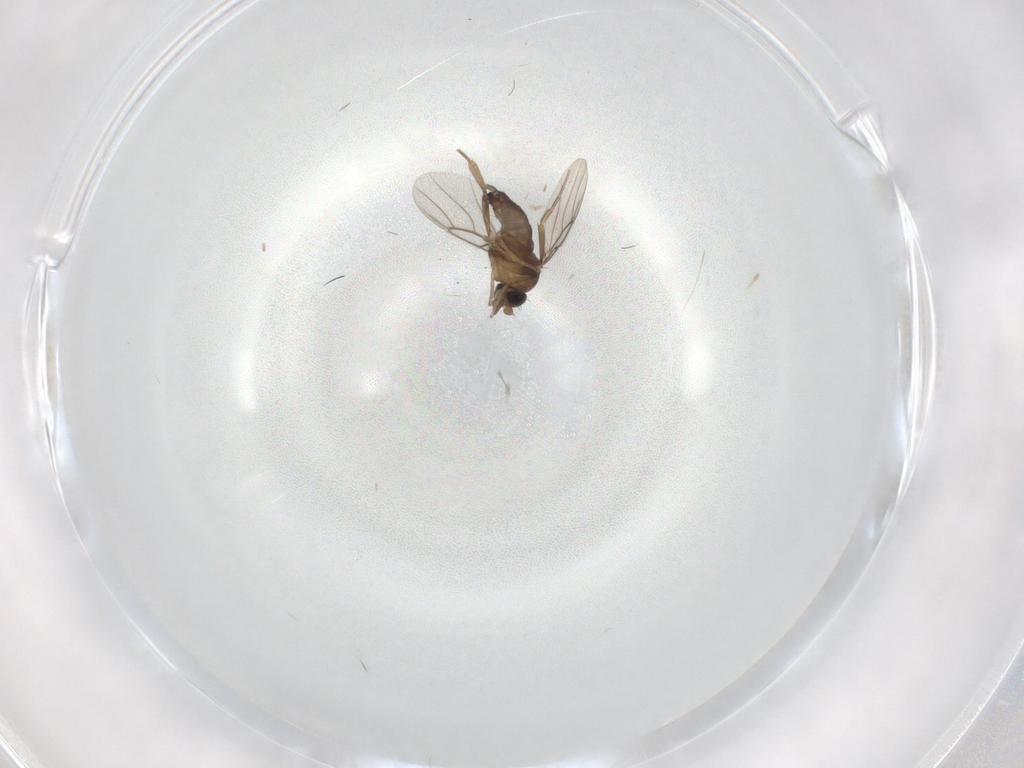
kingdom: Animalia
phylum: Arthropoda
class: Insecta
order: Diptera
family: Phoridae
